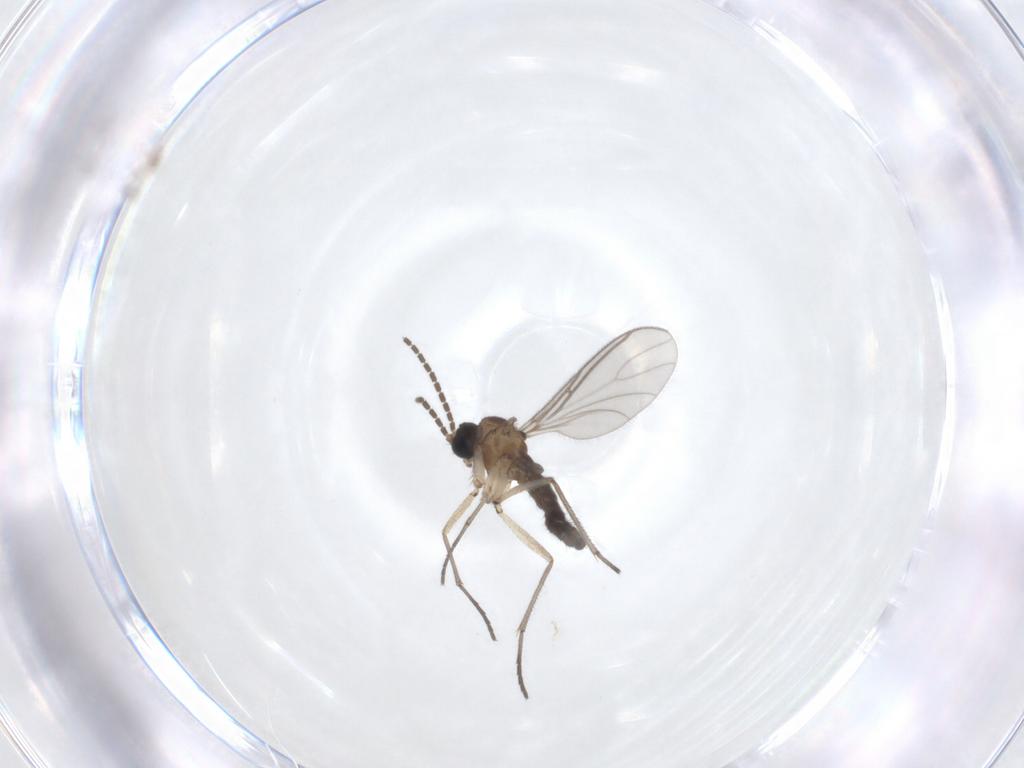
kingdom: Animalia
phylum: Arthropoda
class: Insecta
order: Diptera
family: Sciaridae
